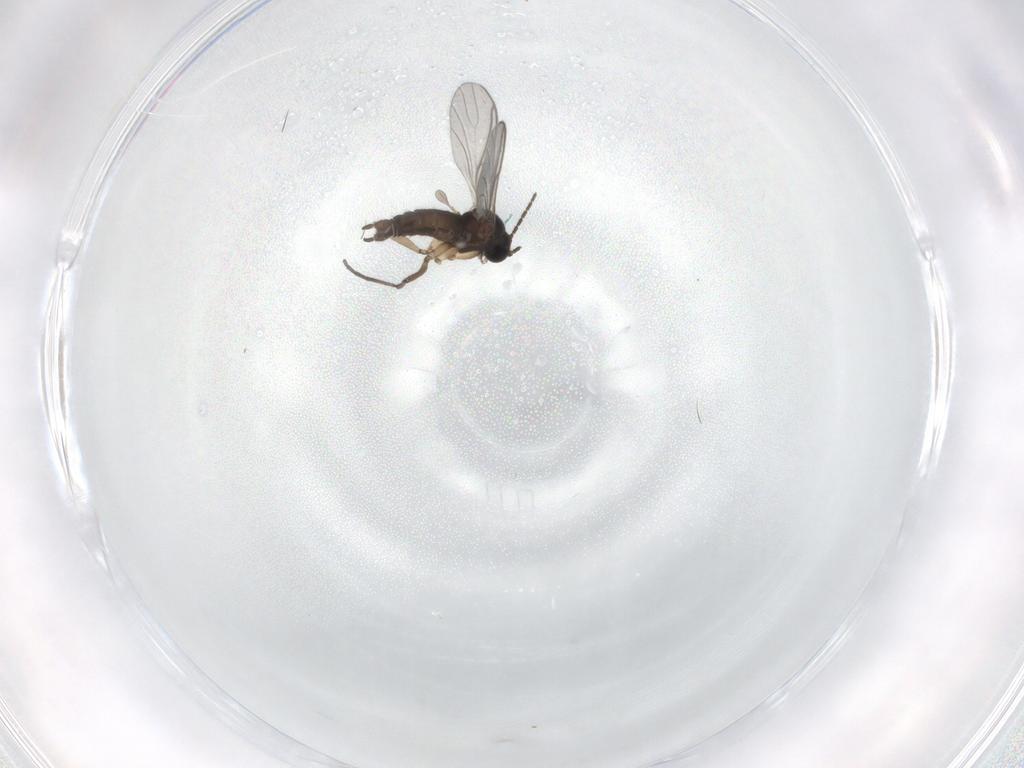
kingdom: Animalia
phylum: Arthropoda
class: Insecta
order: Diptera
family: Sciaridae
